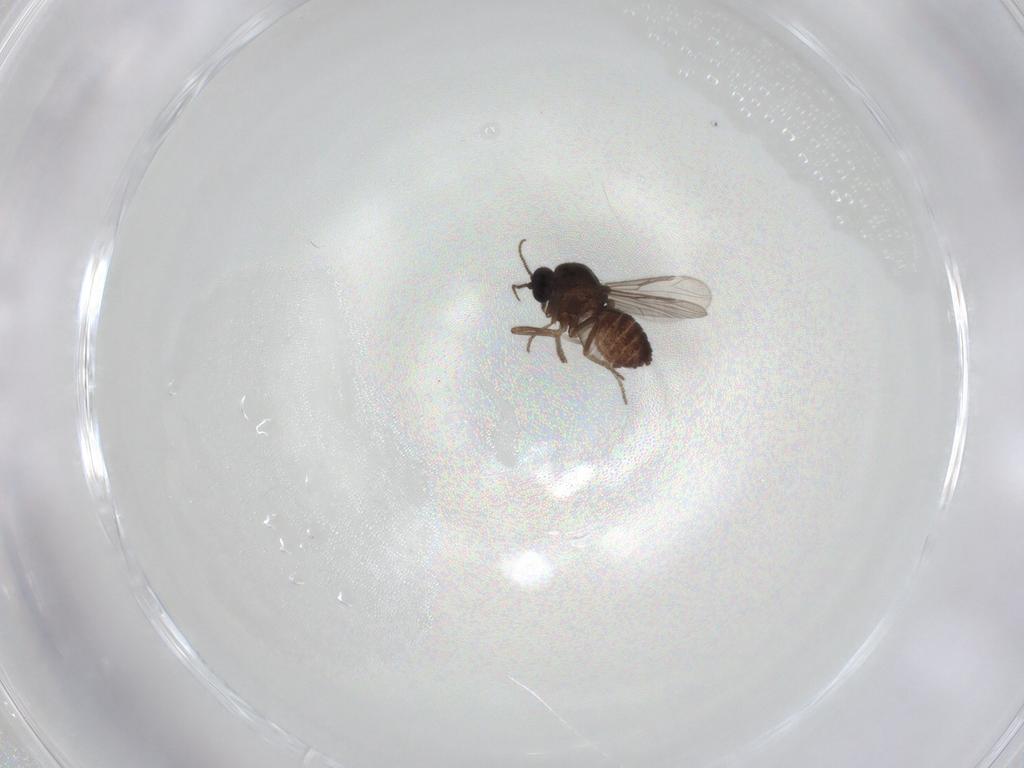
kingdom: Animalia
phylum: Arthropoda
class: Insecta
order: Diptera
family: Ceratopogonidae
